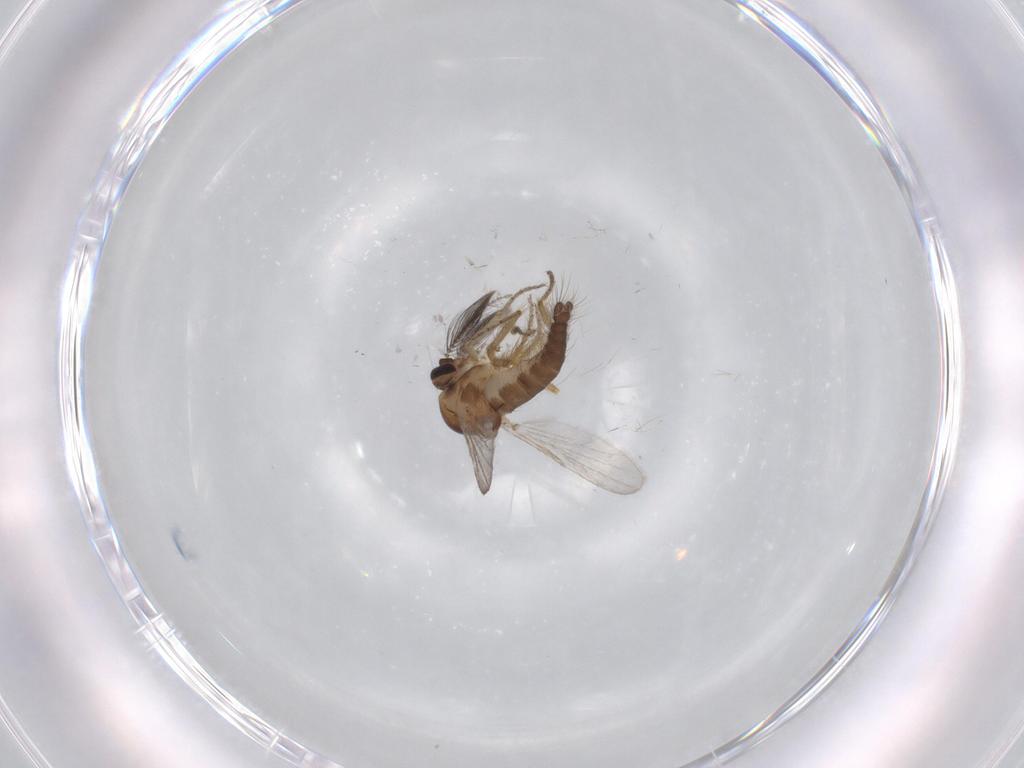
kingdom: Animalia
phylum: Arthropoda
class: Insecta
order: Diptera
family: Ceratopogonidae
